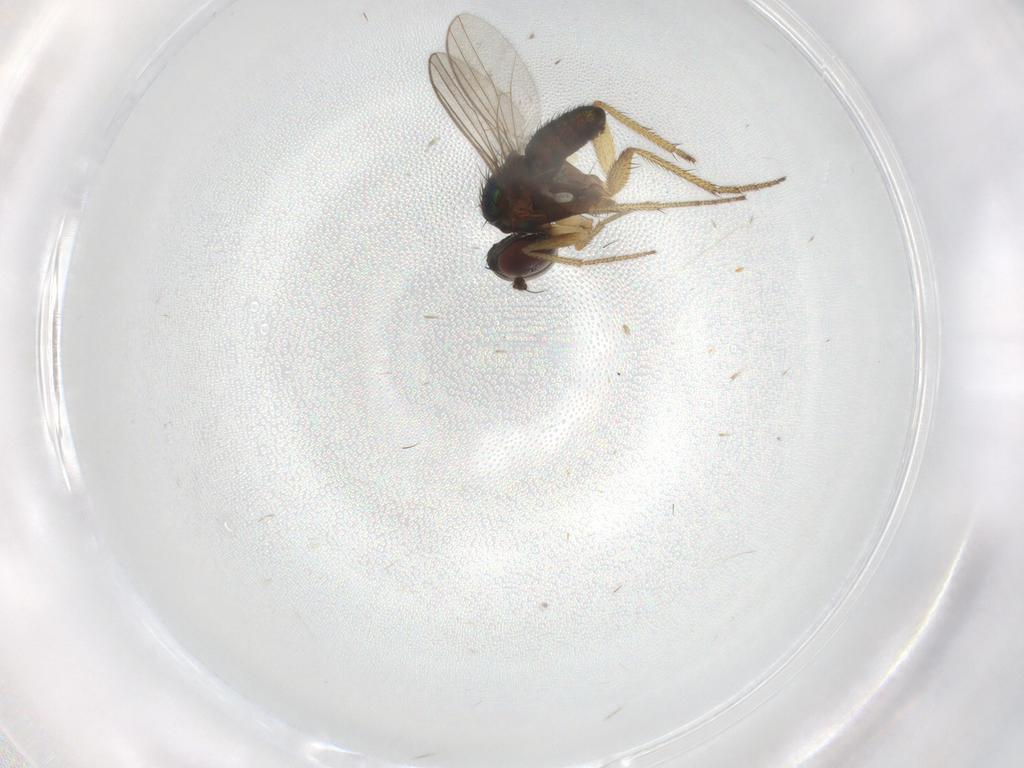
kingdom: Animalia
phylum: Arthropoda
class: Insecta
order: Diptera
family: Dolichopodidae
